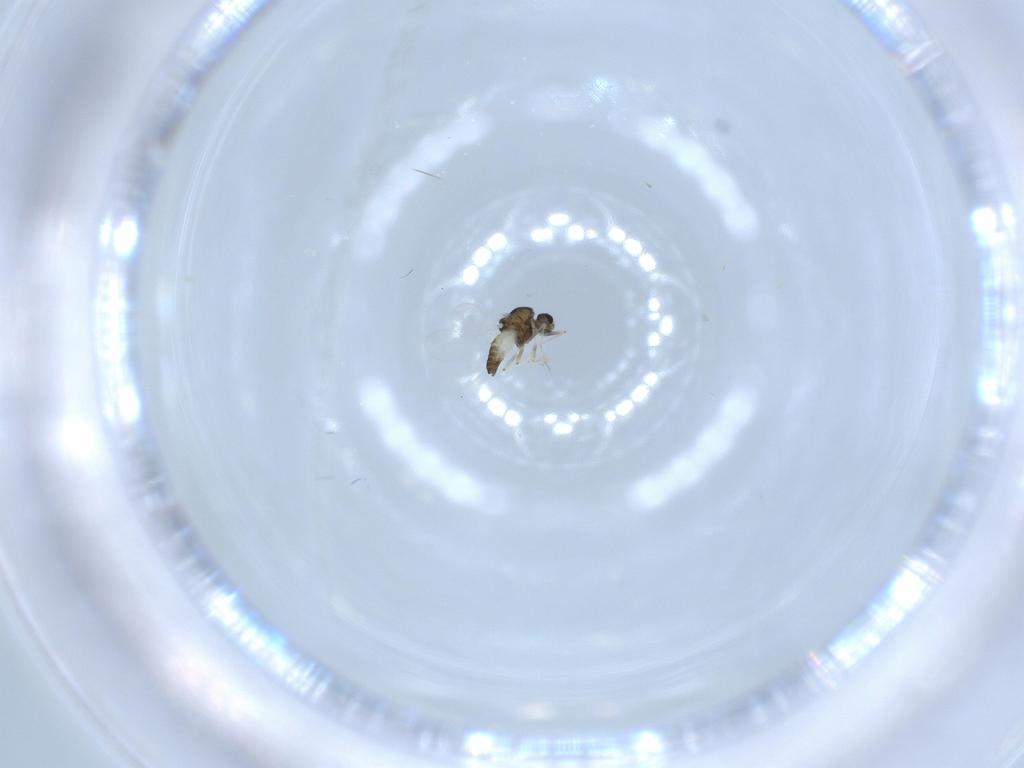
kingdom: Animalia
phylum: Arthropoda
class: Insecta
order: Diptera
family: Chironomidae
